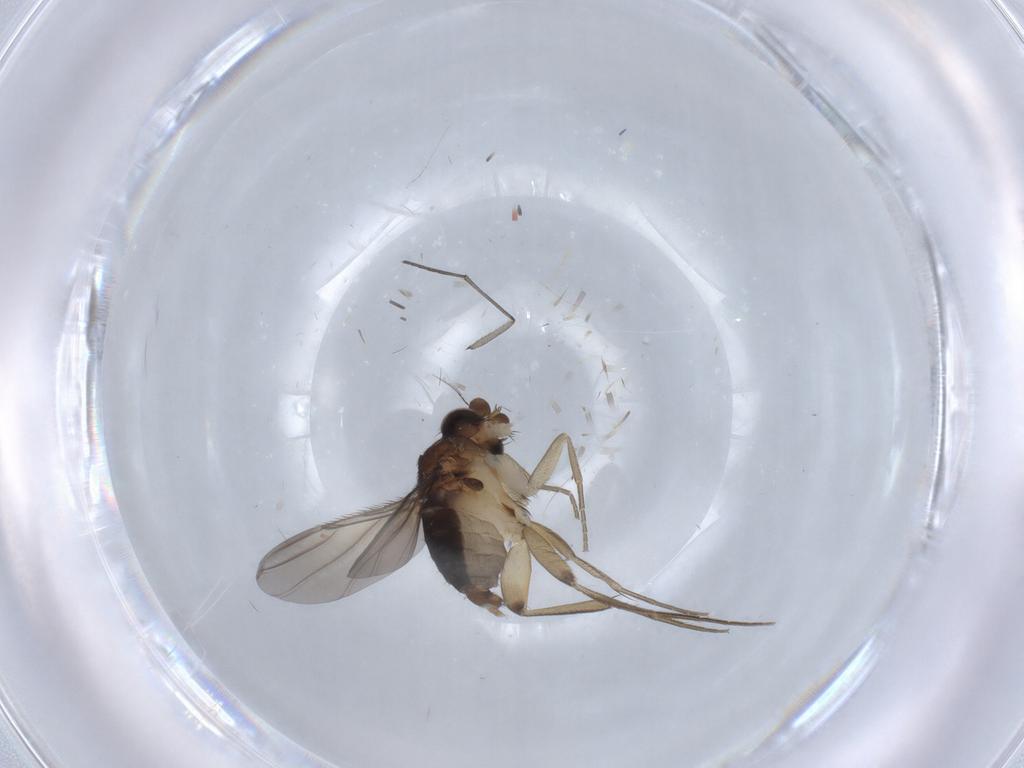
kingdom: Animalia
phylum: Arthropoda
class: Insecta
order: Diptera
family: Phoridae
